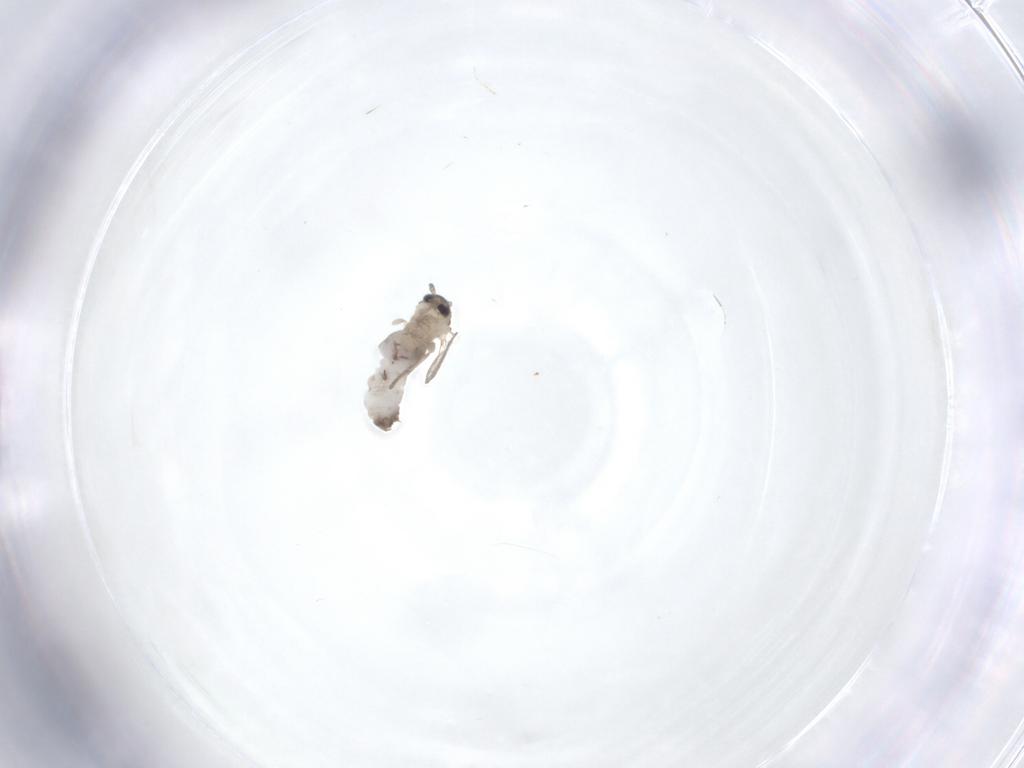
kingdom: Animalia
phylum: Arthropoda
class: Insecta
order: Diptera
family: Psychodidae
